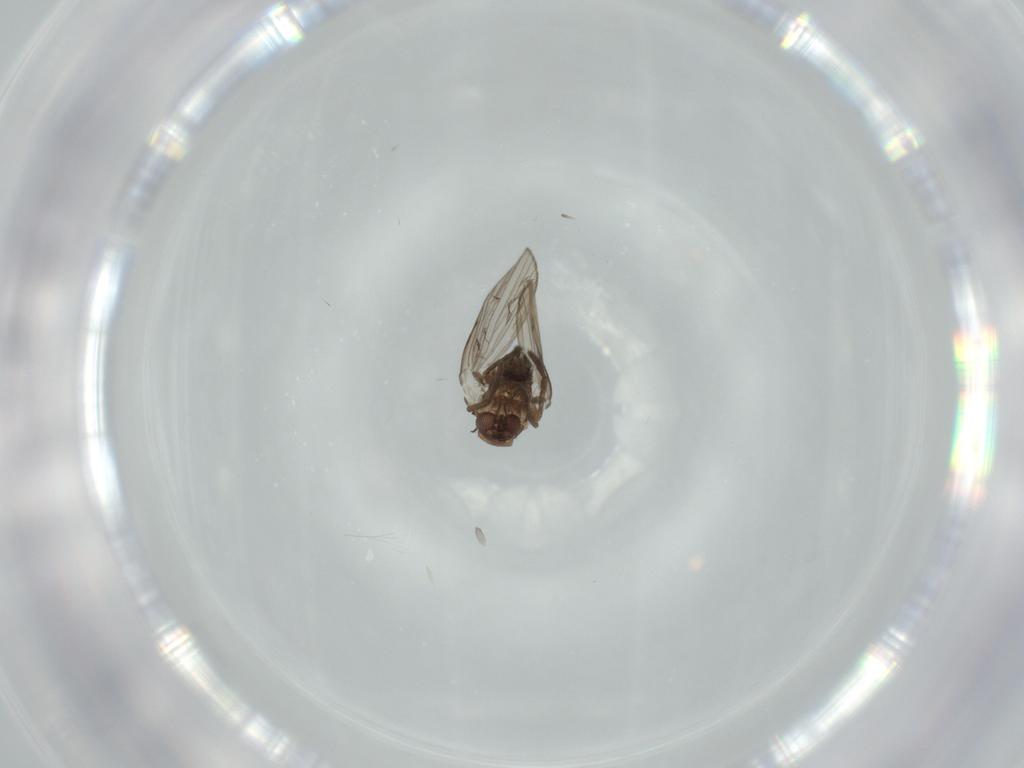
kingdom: Animalia
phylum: Arthropoda
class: Insecta
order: Diptera
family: Psychodidae
